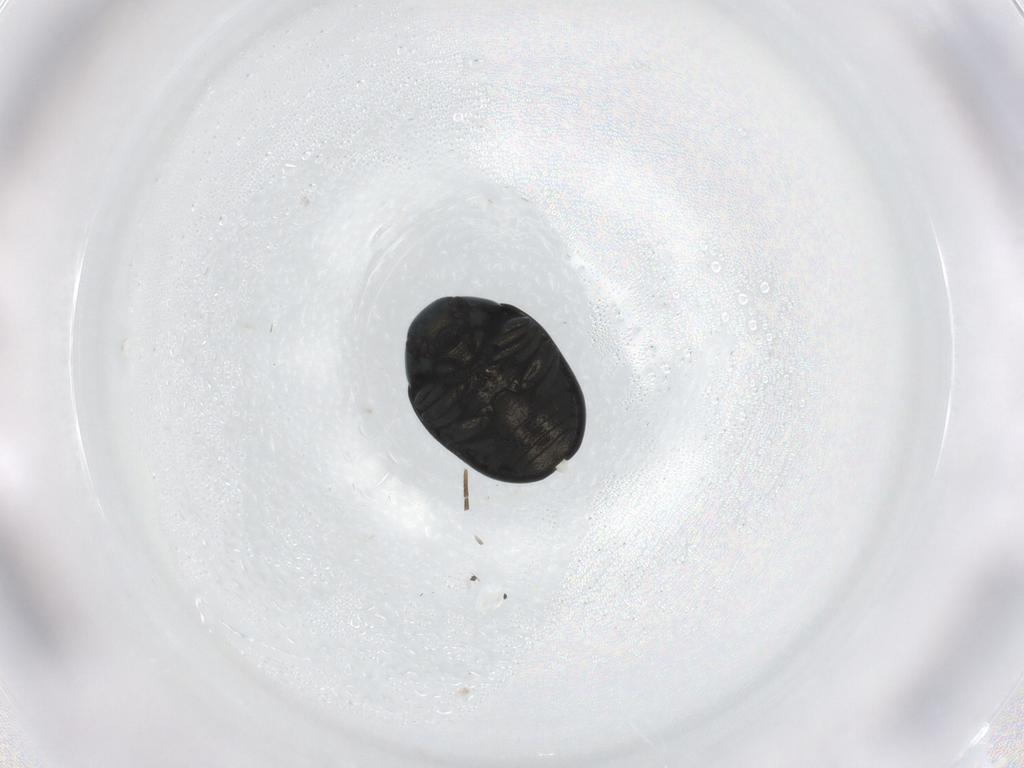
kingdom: Animalia
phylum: Arthropoda
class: Insecta
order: Coleoptera
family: Chrysomelidae
